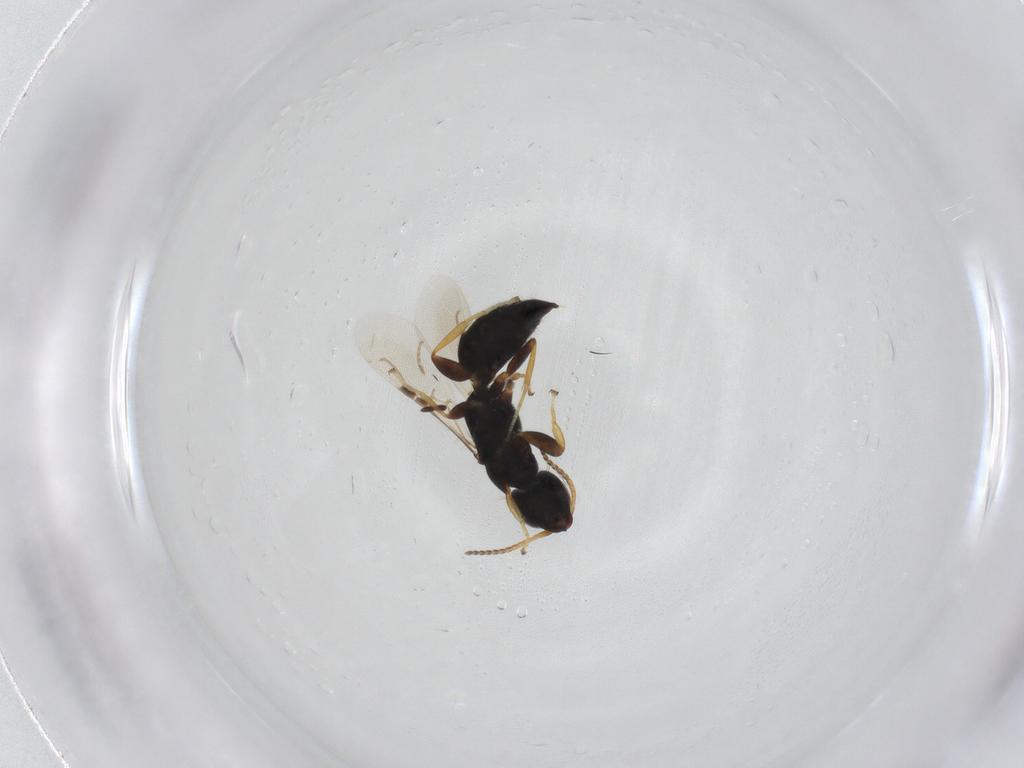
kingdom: Animalia
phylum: Arthropoda
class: Insecta
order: Hymenoptera
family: Bethylidae
